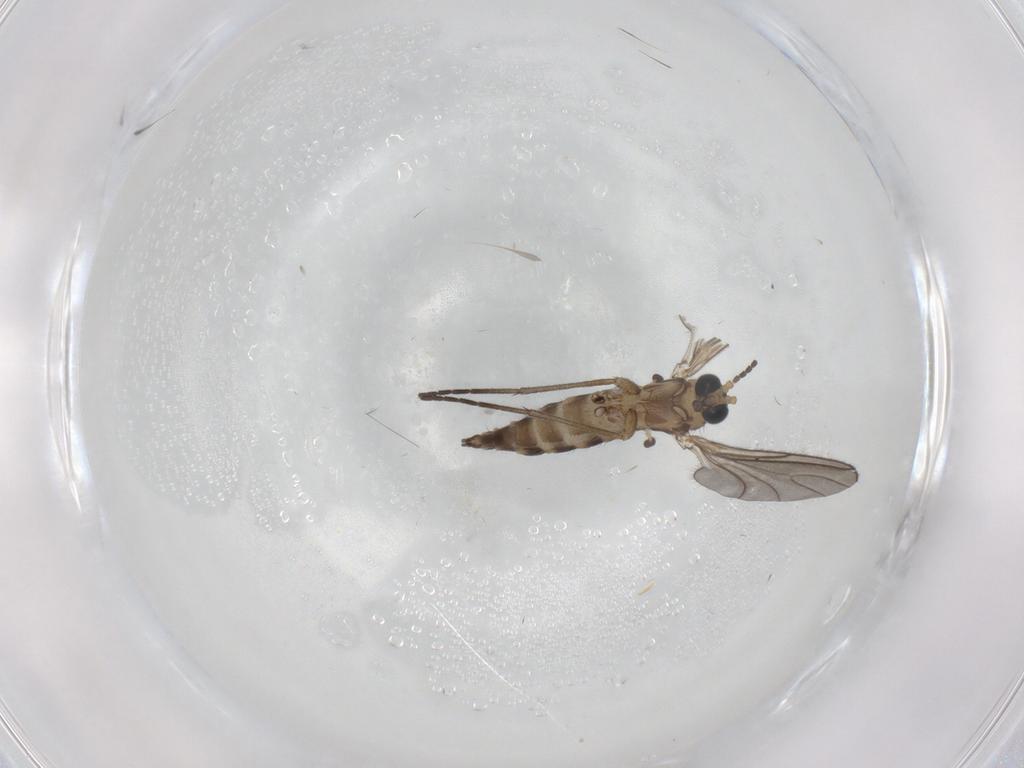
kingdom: Animalia
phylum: Arthropoda
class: Insecta
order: Diptera
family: Sciaridae
